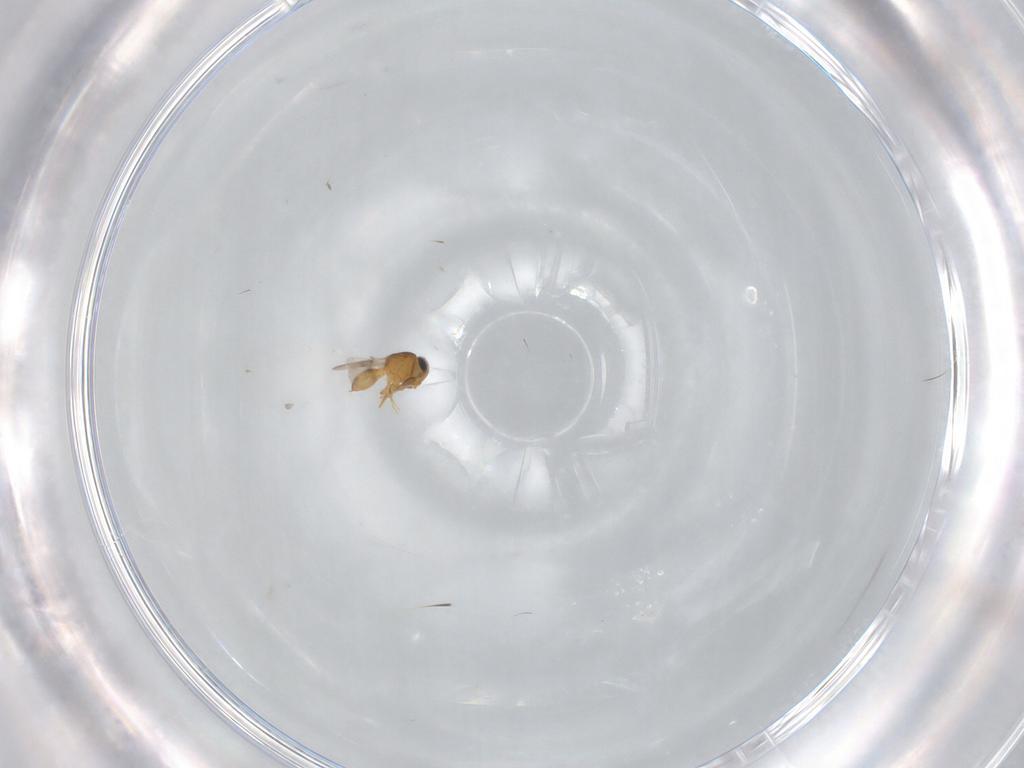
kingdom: Animalia
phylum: Arthropoda
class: Insecta
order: Hymenoptera
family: Scelionidae
